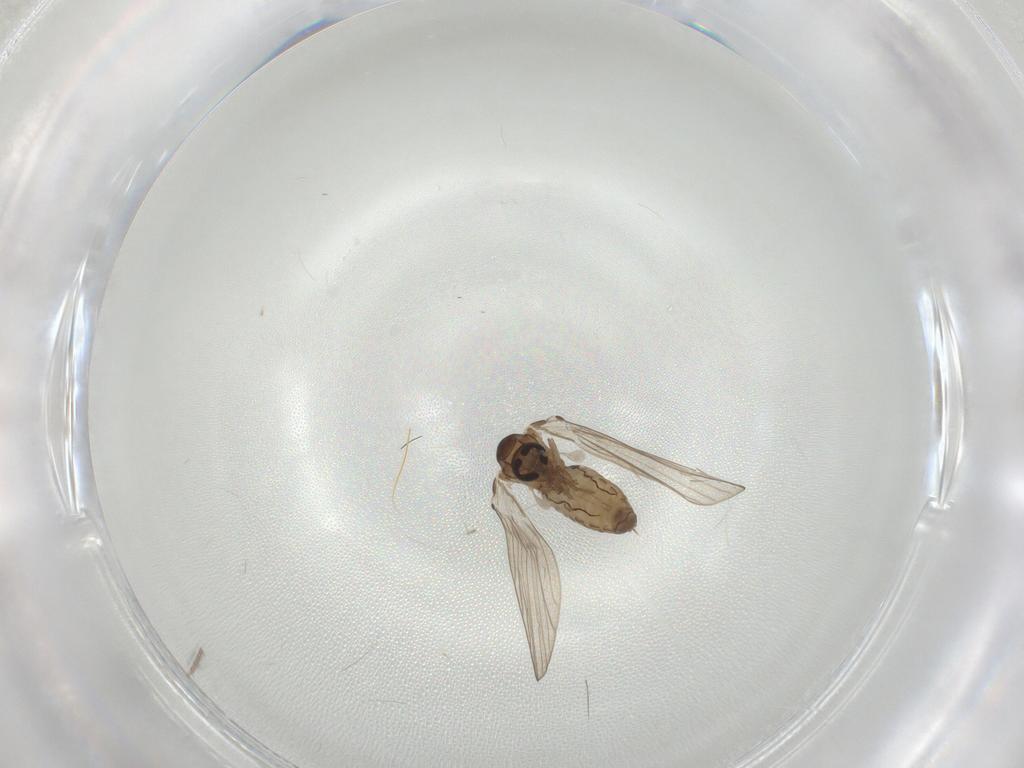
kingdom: Animalia
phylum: Arthropoda
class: Insecta
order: Diptera
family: Psychodidae
